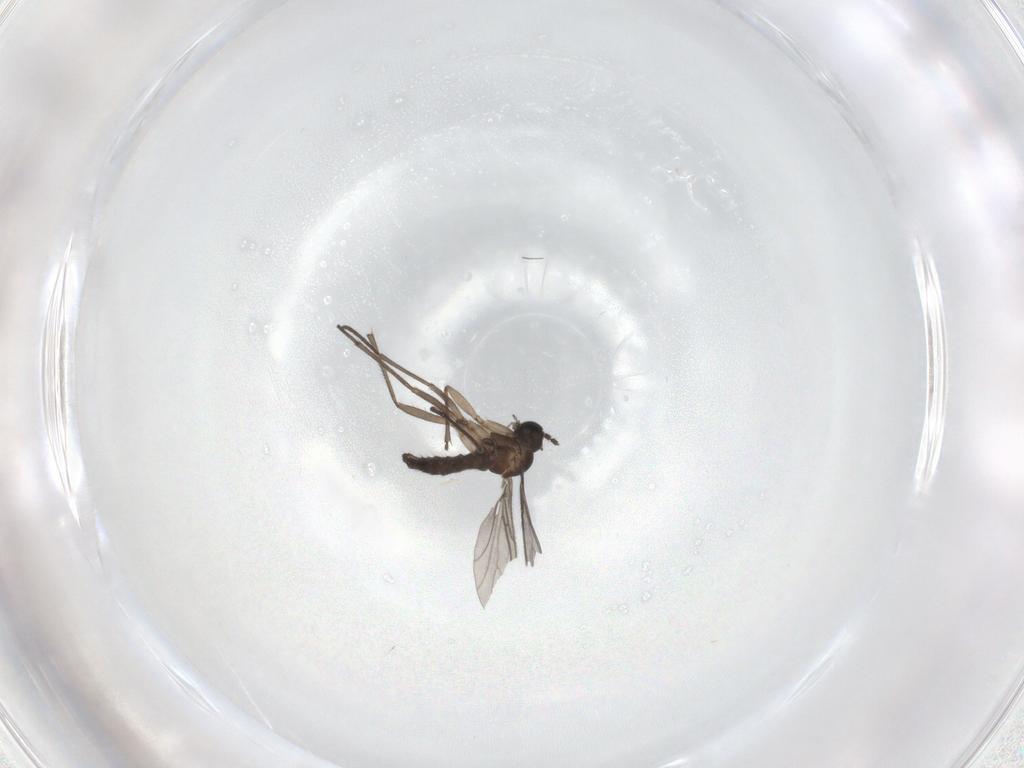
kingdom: Animalia
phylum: Arthropoda
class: Insecta
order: Diptera
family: Sciaridae
